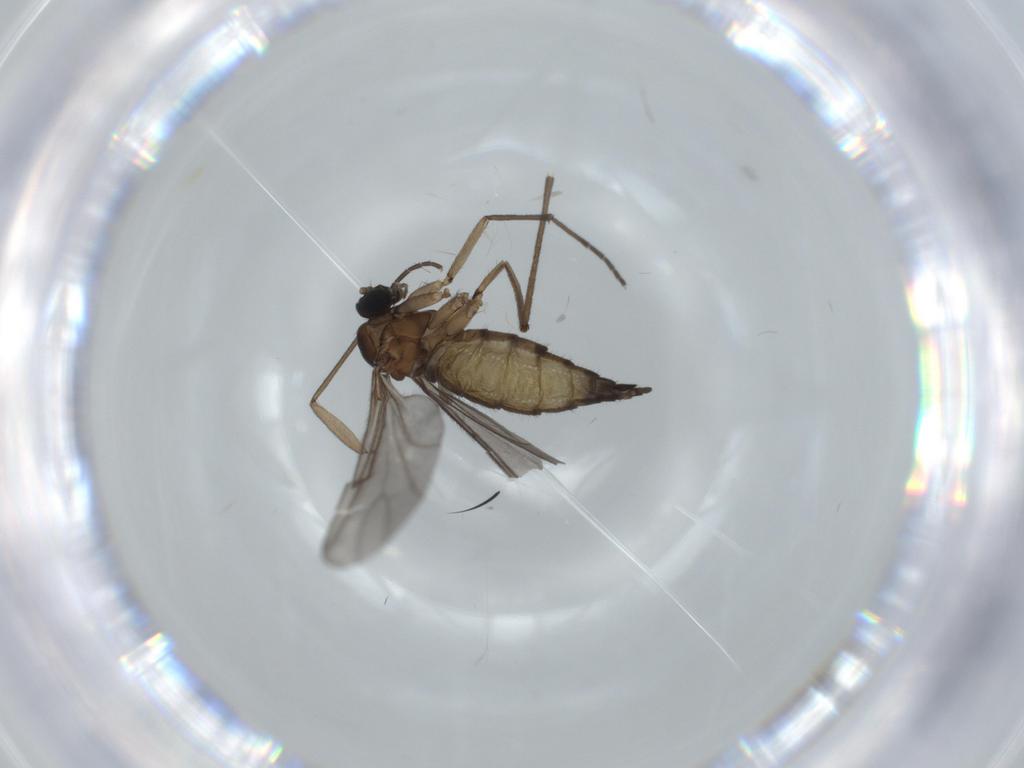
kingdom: Animalia
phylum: Arthropoda
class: Insecta
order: Diptera
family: Sciaridae
